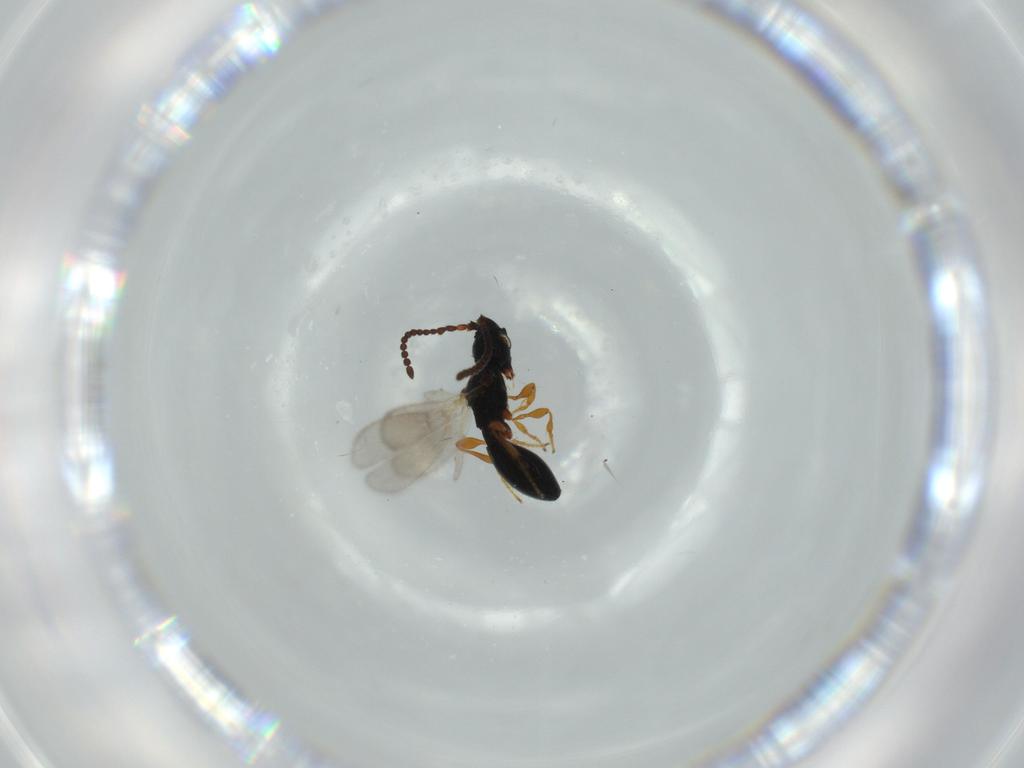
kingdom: Animalia
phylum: Arthropoda
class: Insecta
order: Hymenoptera
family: Diapriidae
